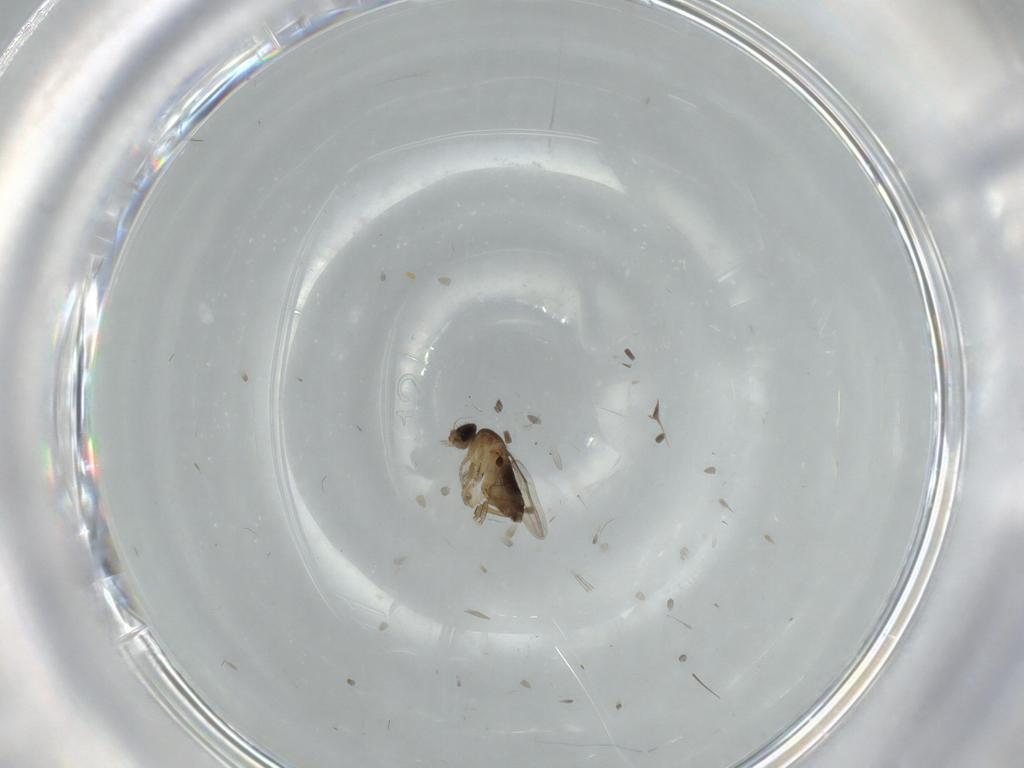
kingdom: Animalia
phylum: Arthropoda
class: Insecta
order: Diptera
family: Phoridae
